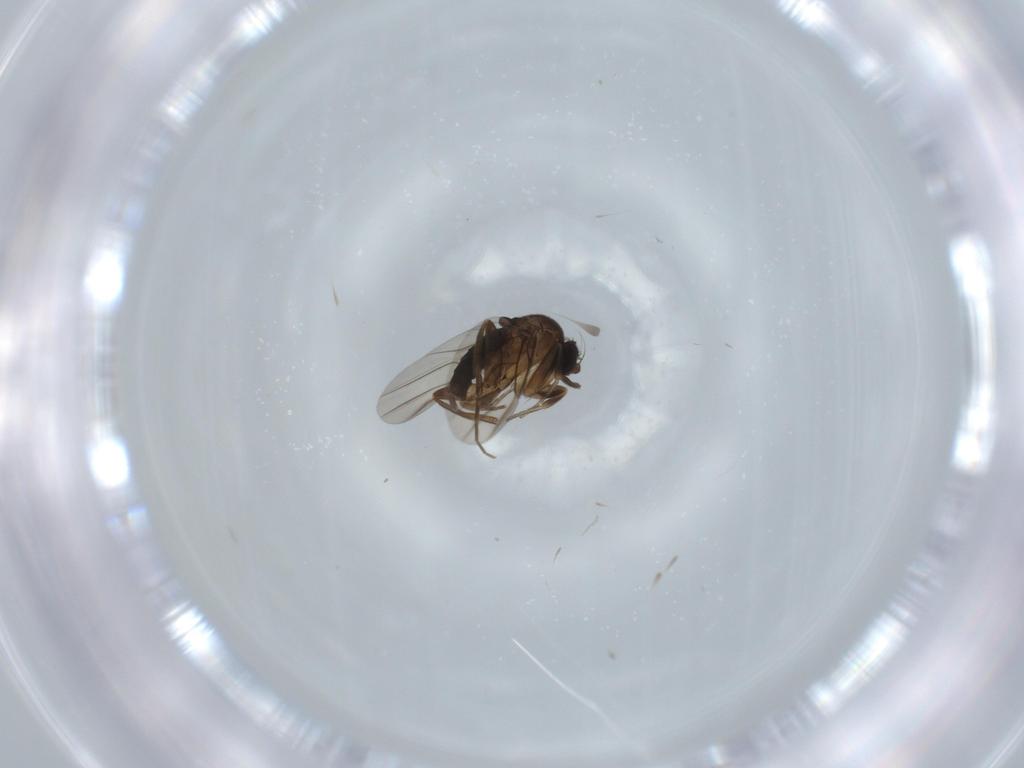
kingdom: Animalia
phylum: Arthropoda
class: Insecta
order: Diptera
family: Phoridae
